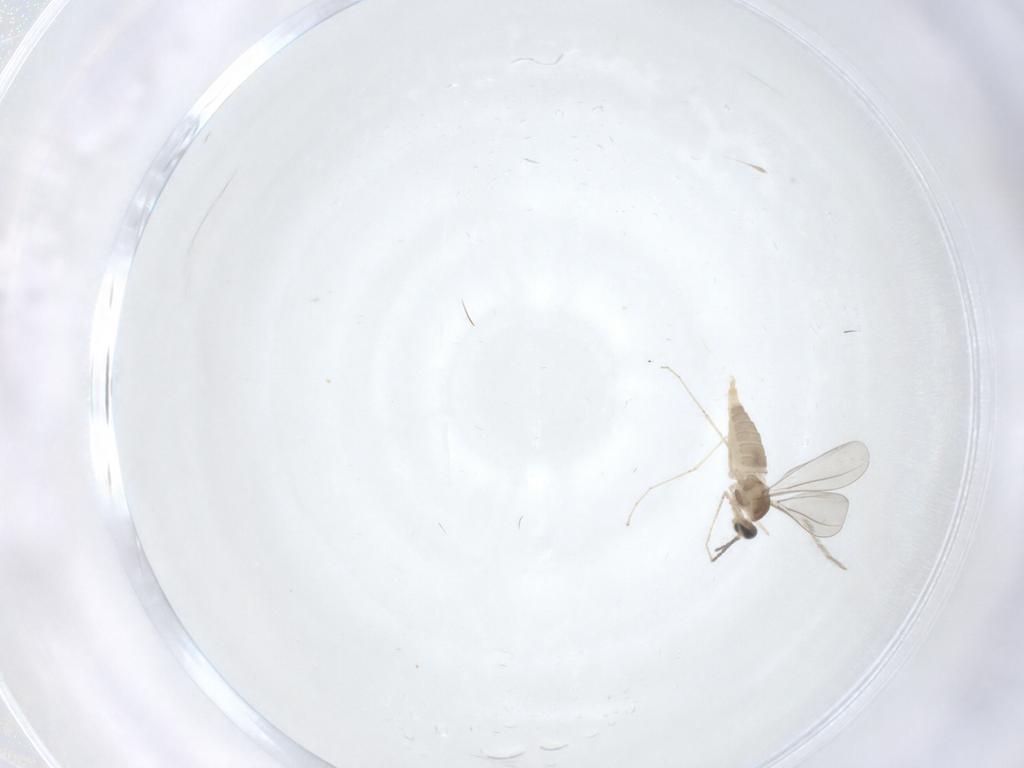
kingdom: Animalia
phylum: Arthropoda
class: Insecta
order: Diptera
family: Cecidomyiidae
